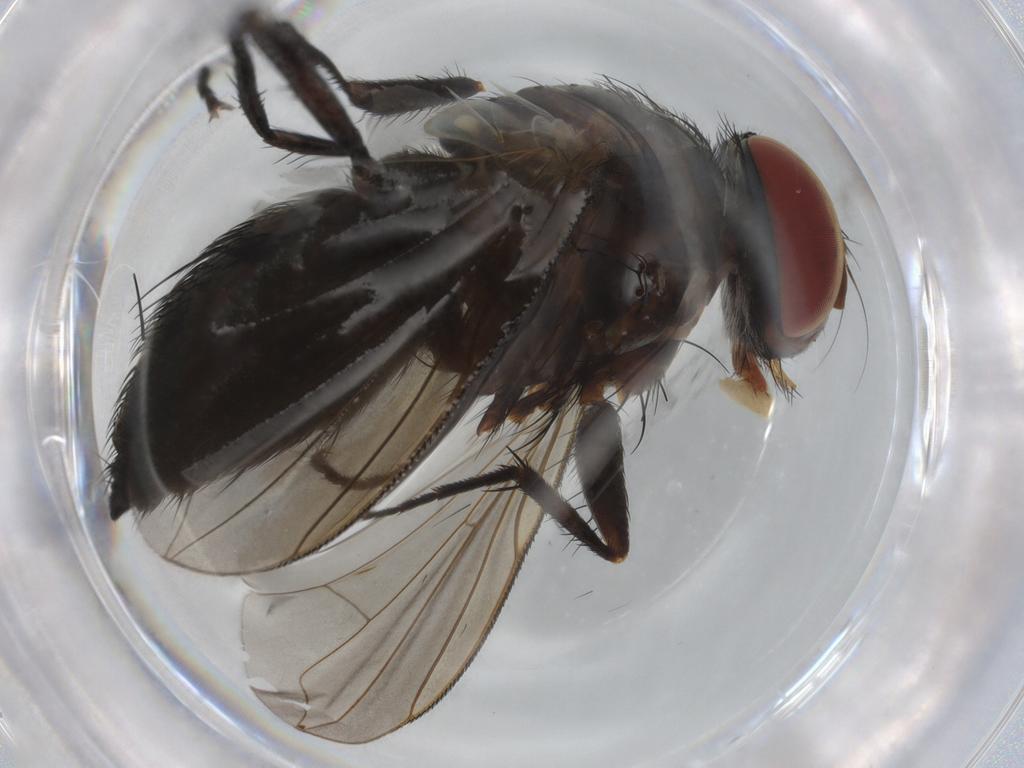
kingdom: Animalia
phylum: Arthropoda
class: Insecta
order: Diptera
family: Tachinidae
